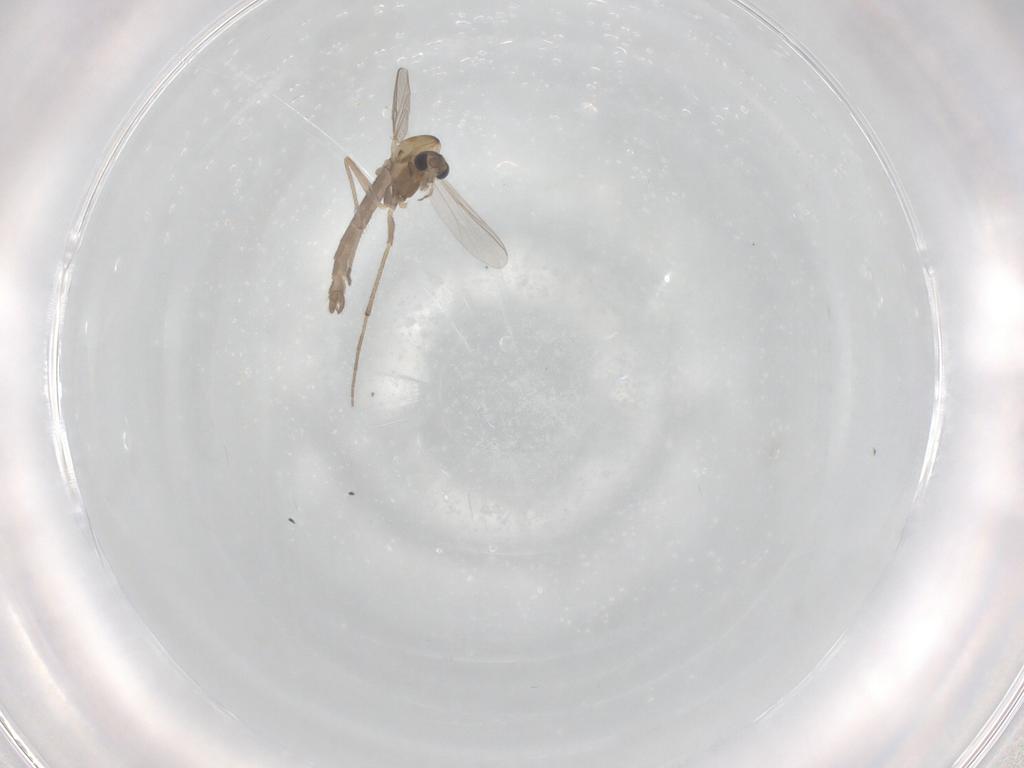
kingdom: Animalia
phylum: Arthropoda
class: Insecta
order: Diptera
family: Chironomidae
